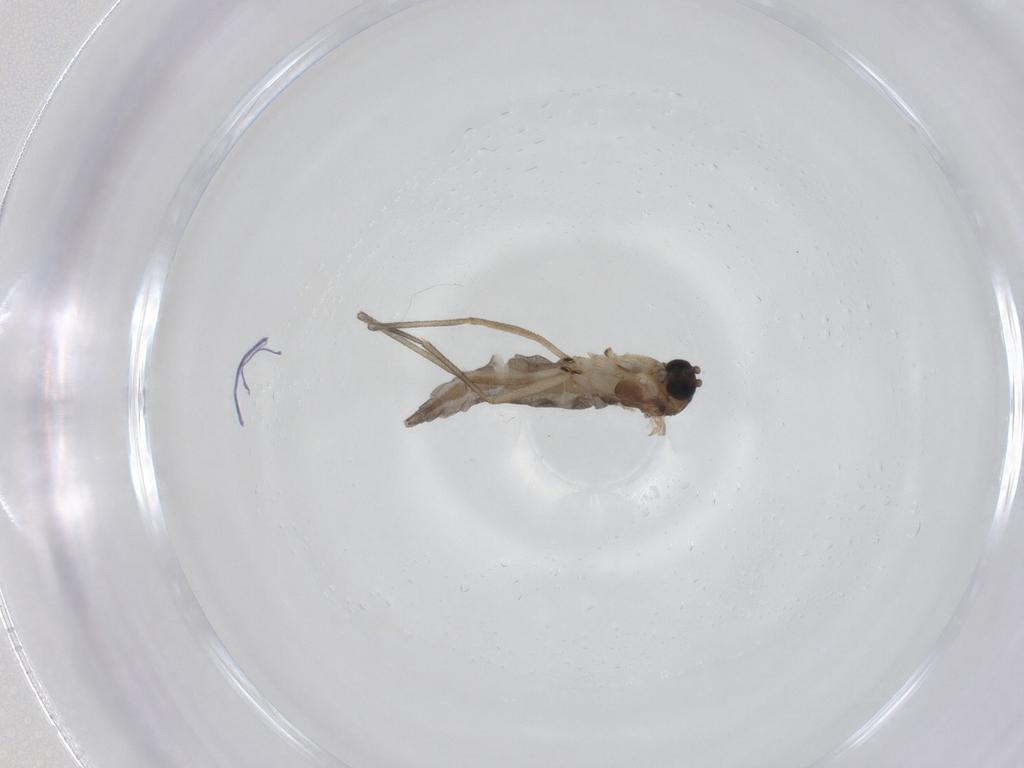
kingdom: Animalia
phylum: Arthropoda
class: Insecta
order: Diptera
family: Sciaridae
